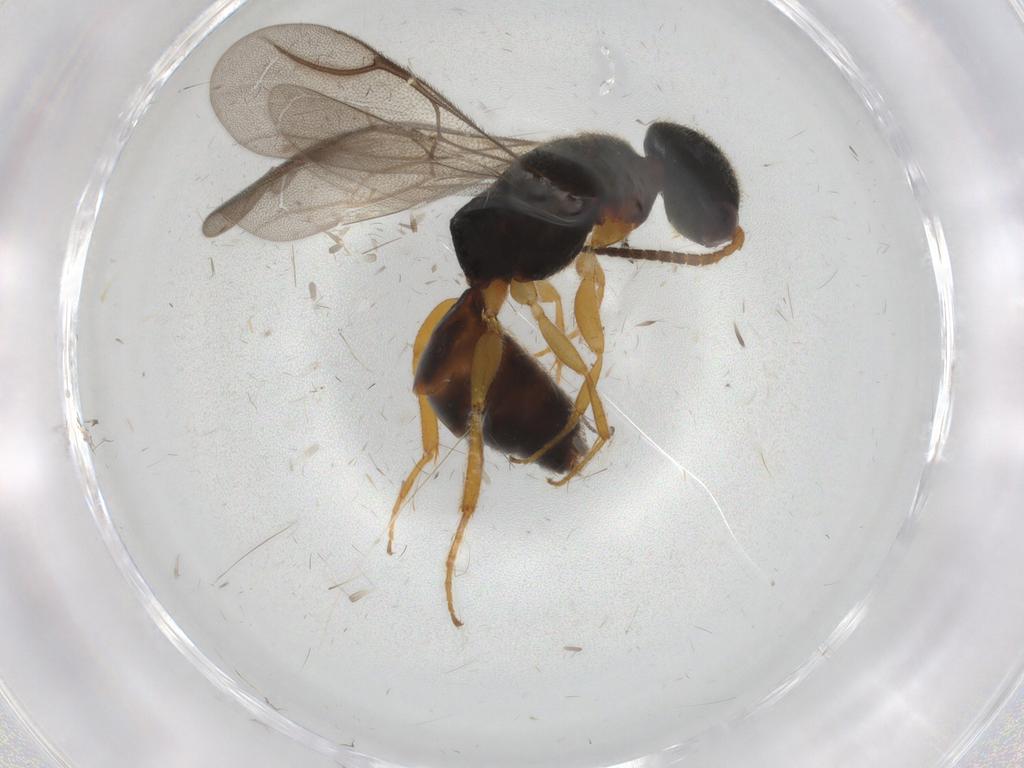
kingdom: Animalia
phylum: Arthropoda
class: Insecta
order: Hymenoptera
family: Bethylidae
